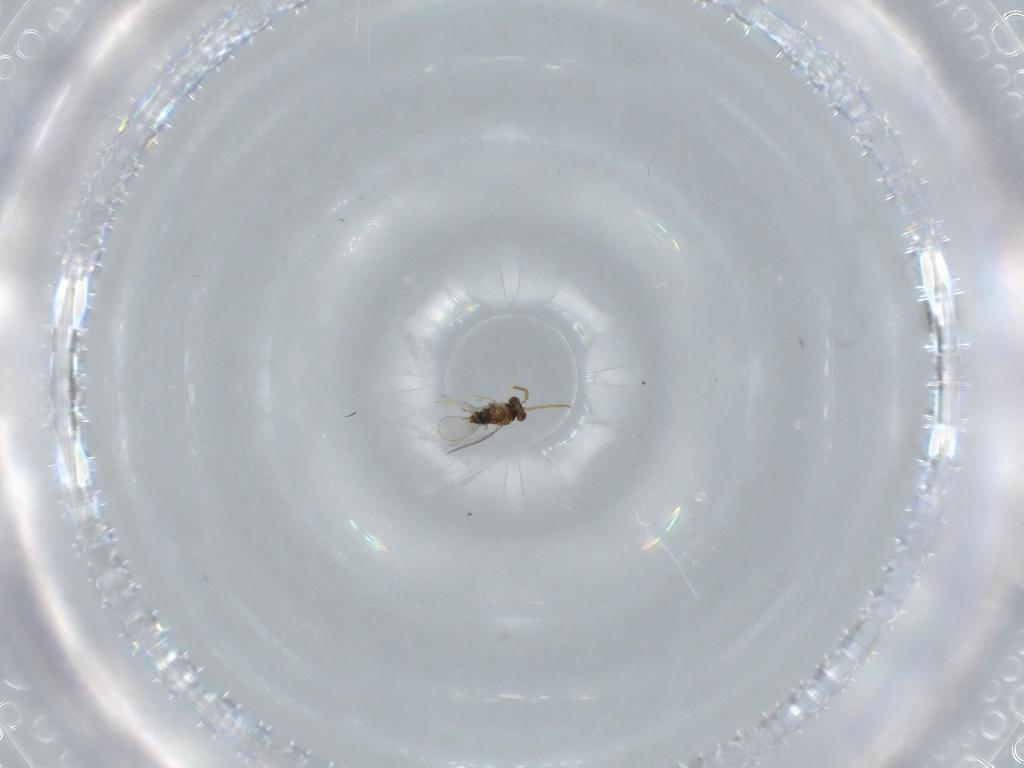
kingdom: Animalia
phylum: Arthropoda
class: Insecta
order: Hymenoptera
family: Aphelinidae
